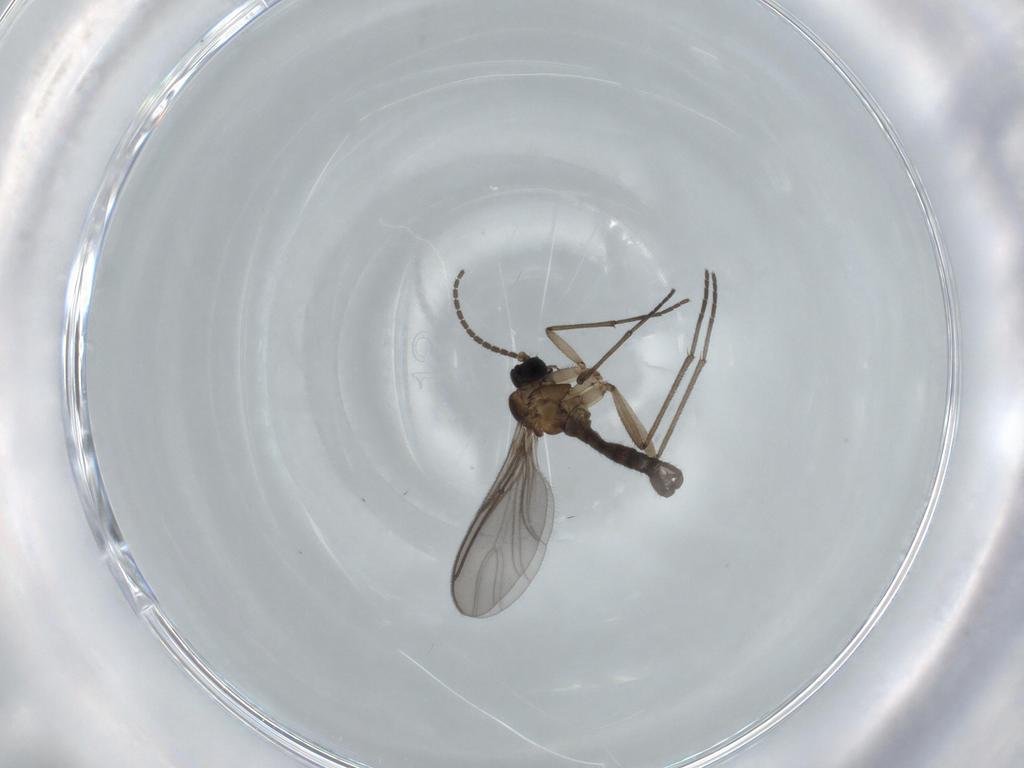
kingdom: Animalia
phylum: Arthropoda
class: Insecta
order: Diptera
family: Sciaridae
